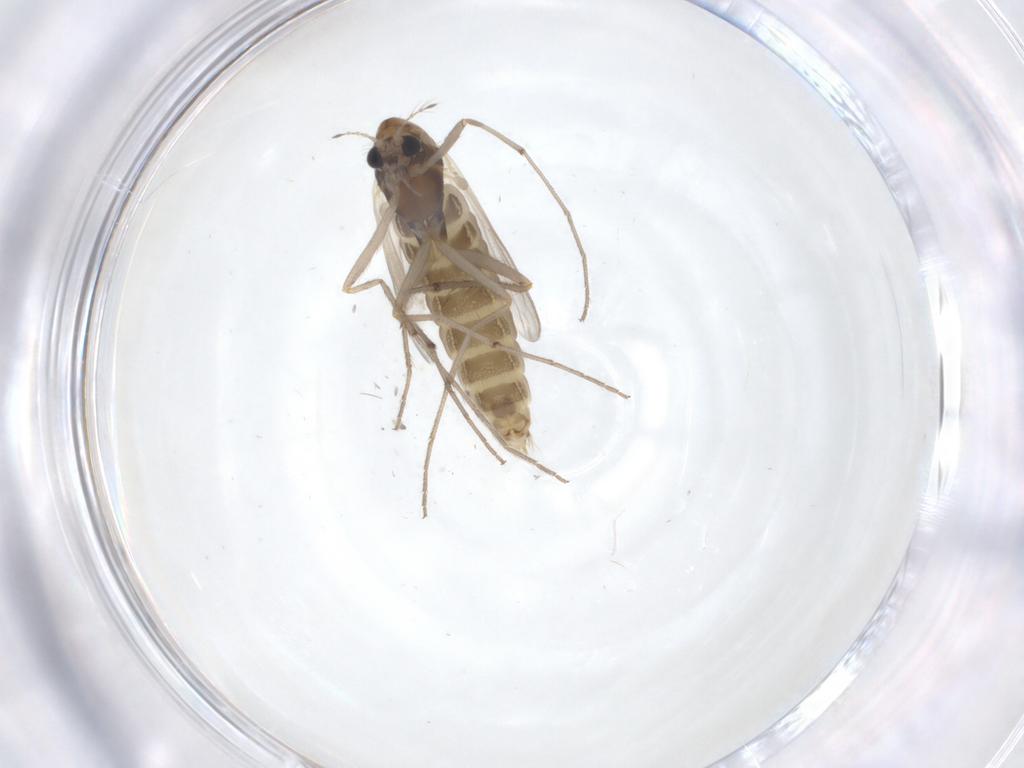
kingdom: Animalia
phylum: Arthropoda
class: Insecta
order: Diptera
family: Chironomidae
